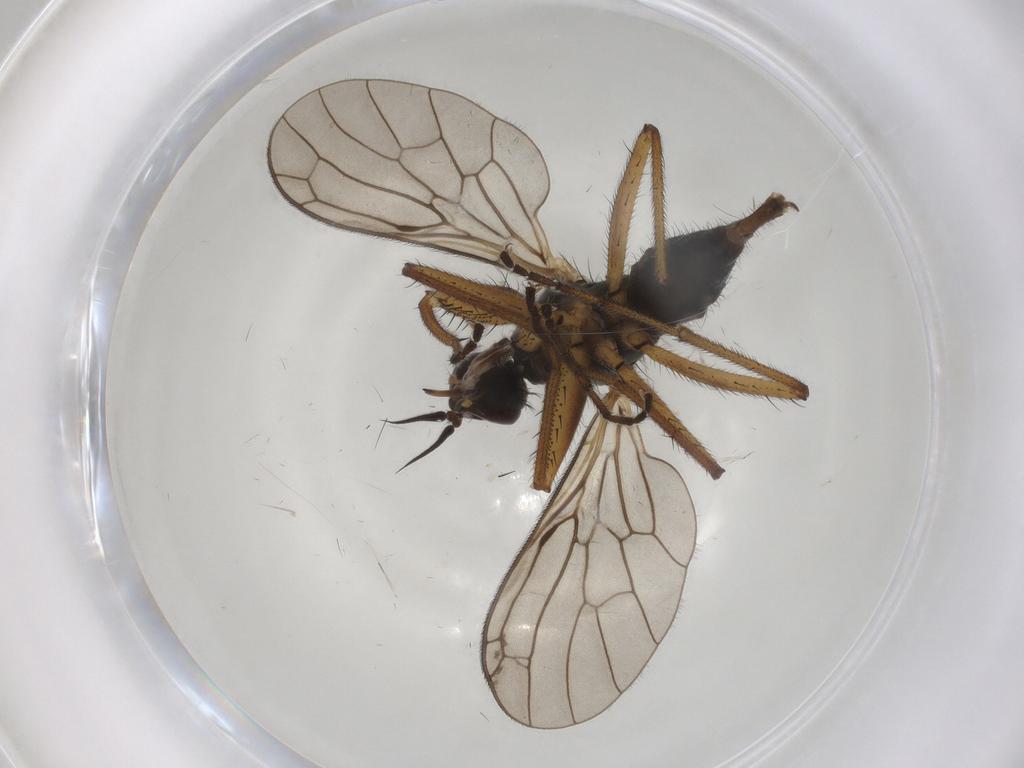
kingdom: Animalia
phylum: Arthropoda
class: Insecta
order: Diptera
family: Empididae
